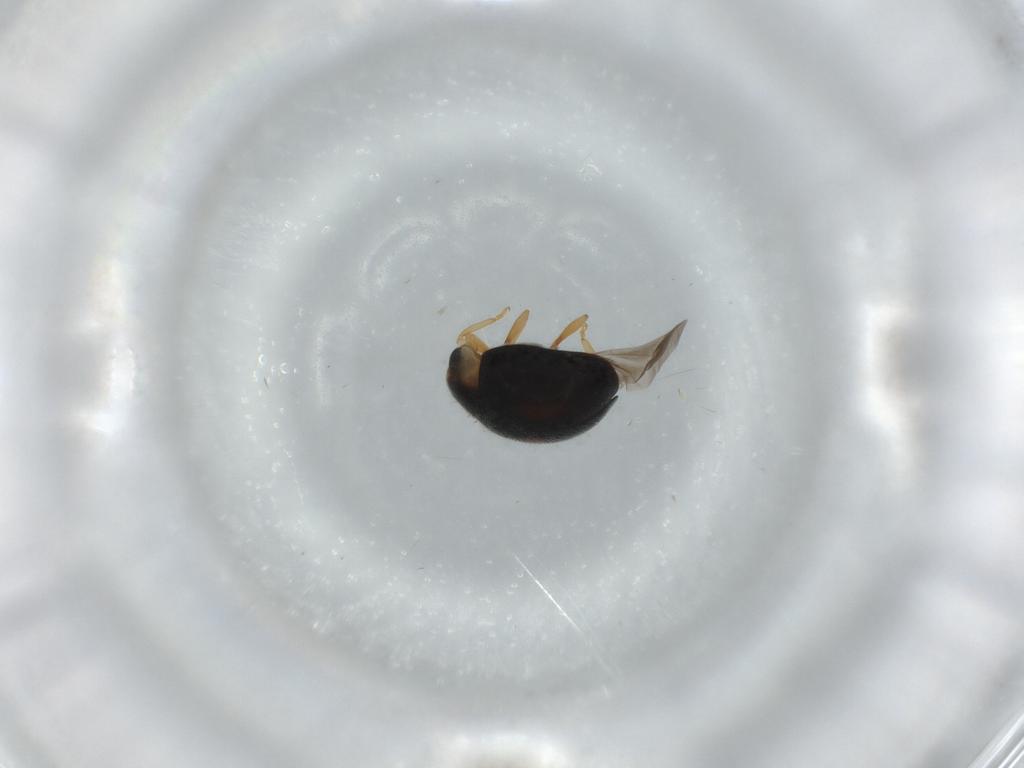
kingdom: Animalia
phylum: Arthropoda
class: Insecta
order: Coleoptera
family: Coccinellidae
